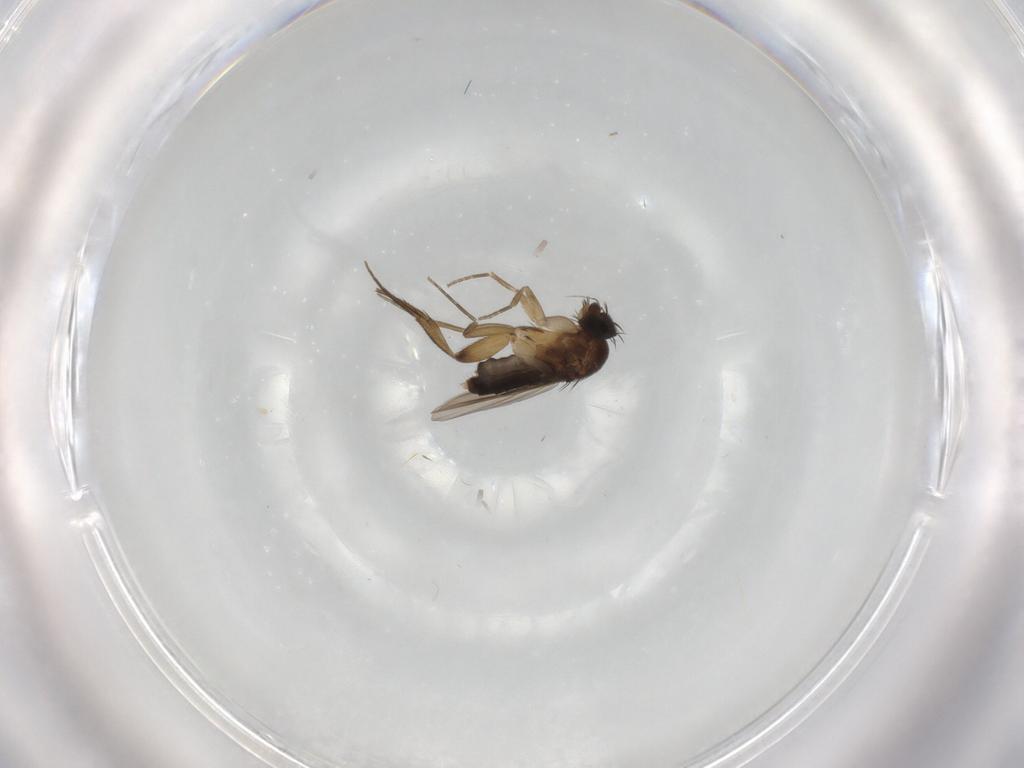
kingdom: Animalia
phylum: Arthropoda
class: Insecta
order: Diptera
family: Phoridae
